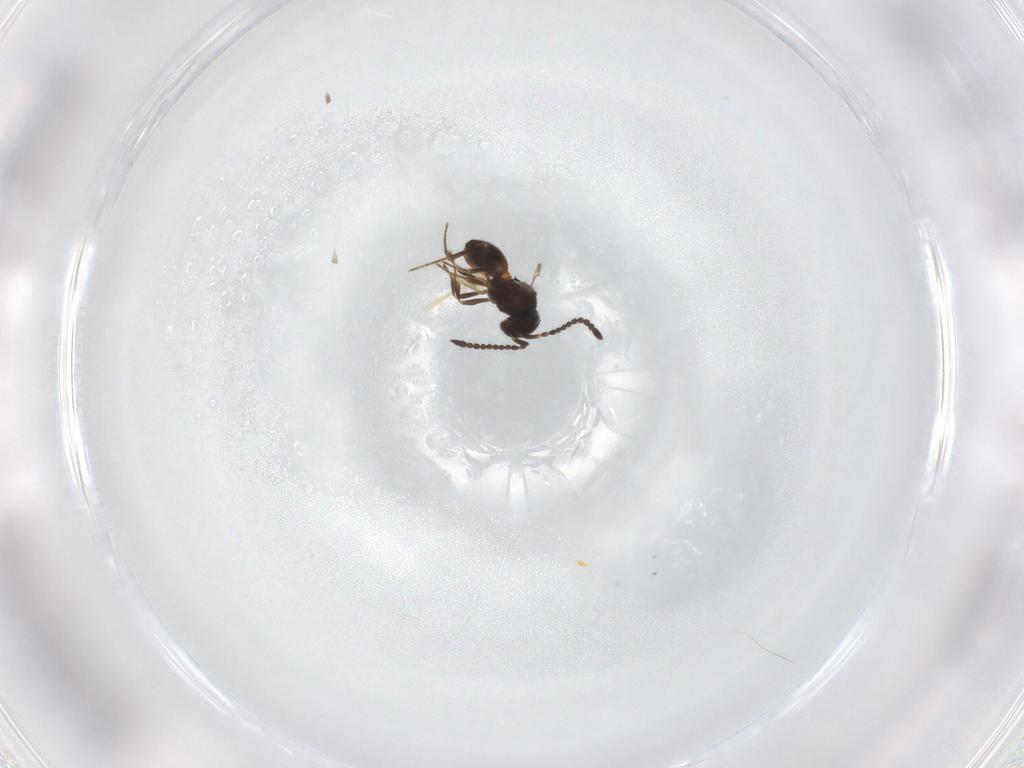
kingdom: Animalia
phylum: Arthropoda
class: Insecta
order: Hymenoptera
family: Scelionidae
